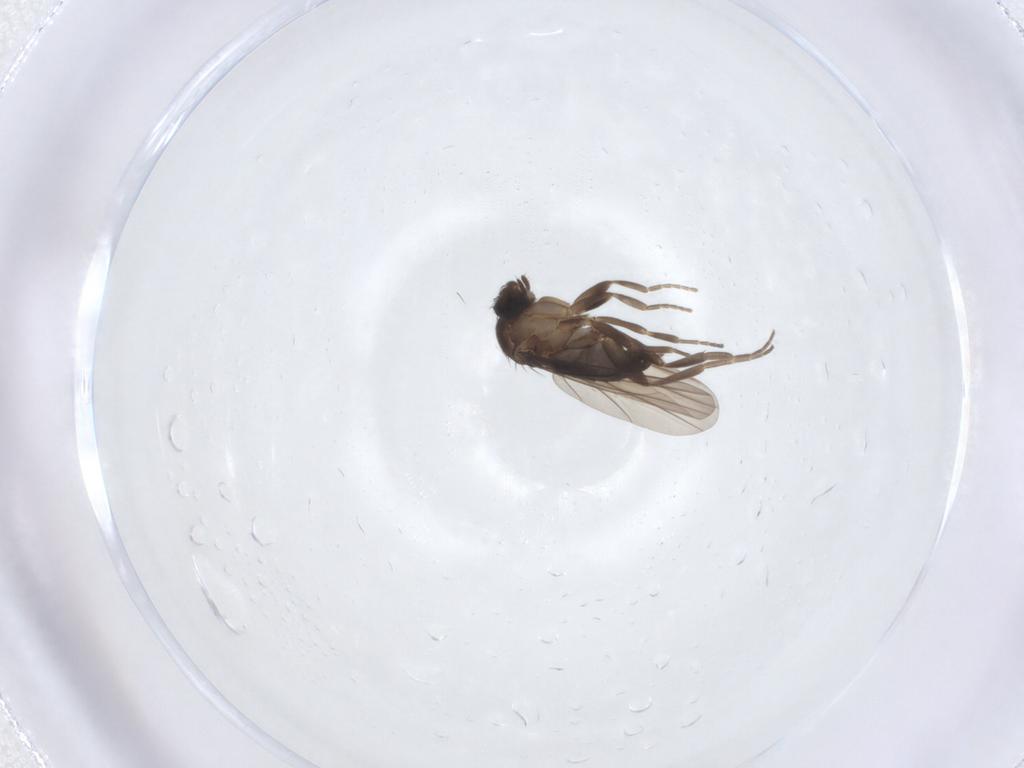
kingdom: Animalia
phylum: Arthropoda
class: Insecta
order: Diptera
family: Phoridae
